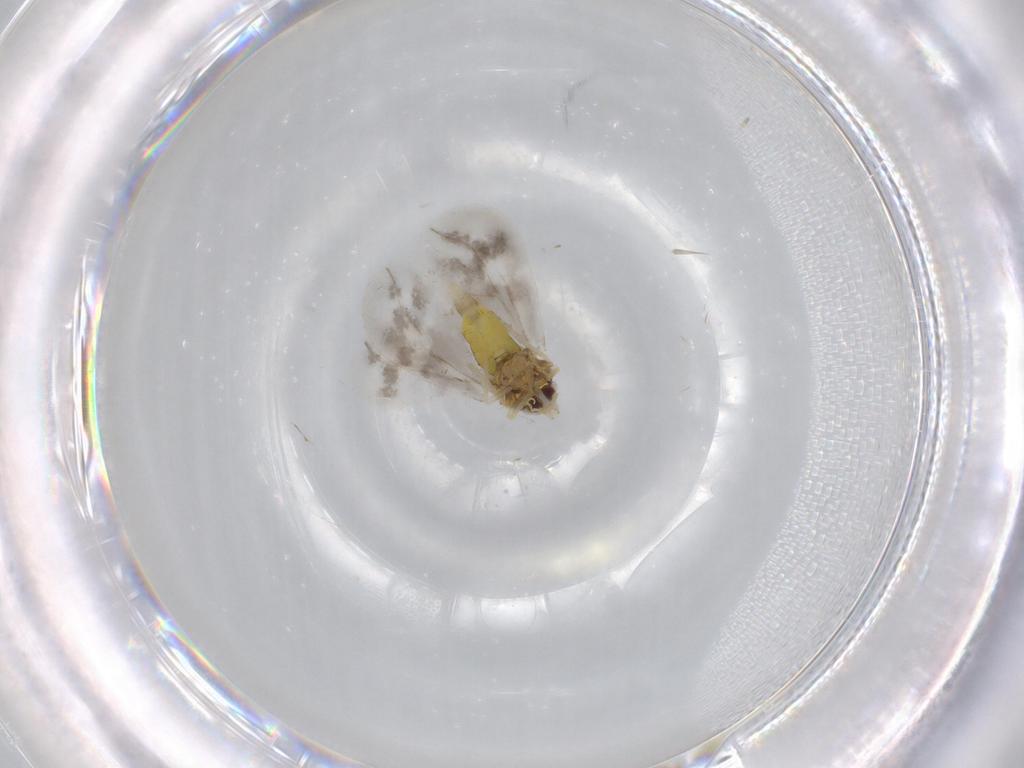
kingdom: Animalia
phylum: Arthropoda
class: Insecta
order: Hemiptera
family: Aleyrodidae
